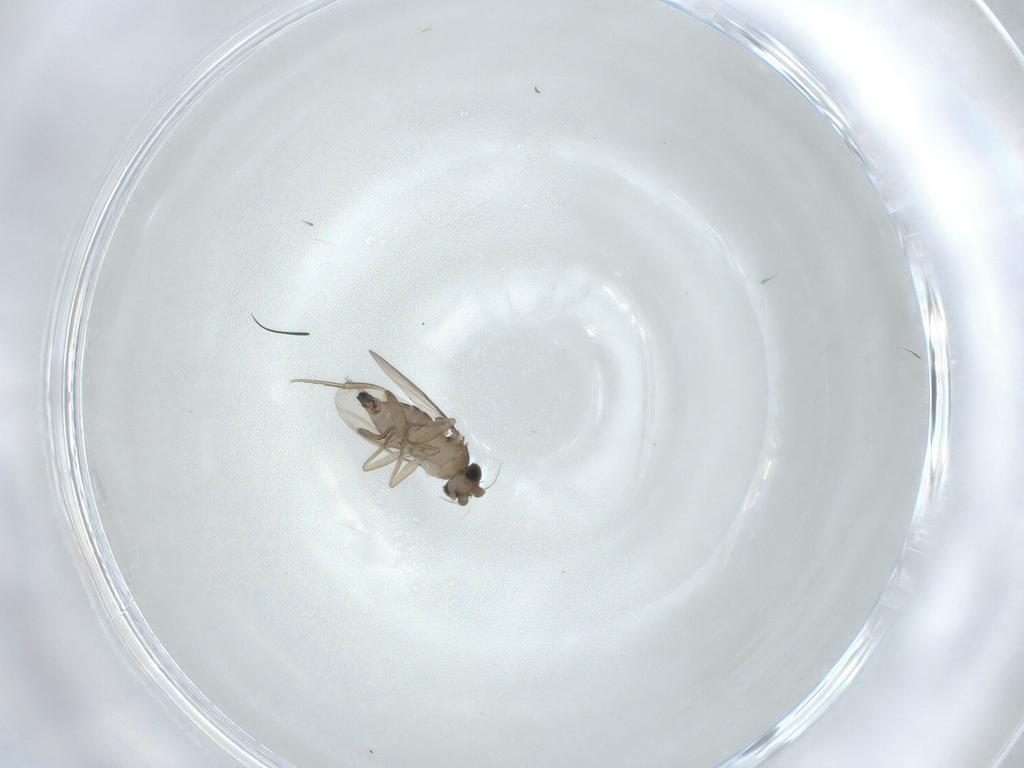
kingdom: Animalia
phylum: Arthropoda
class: Insecta
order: Diptera
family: Phoridae
